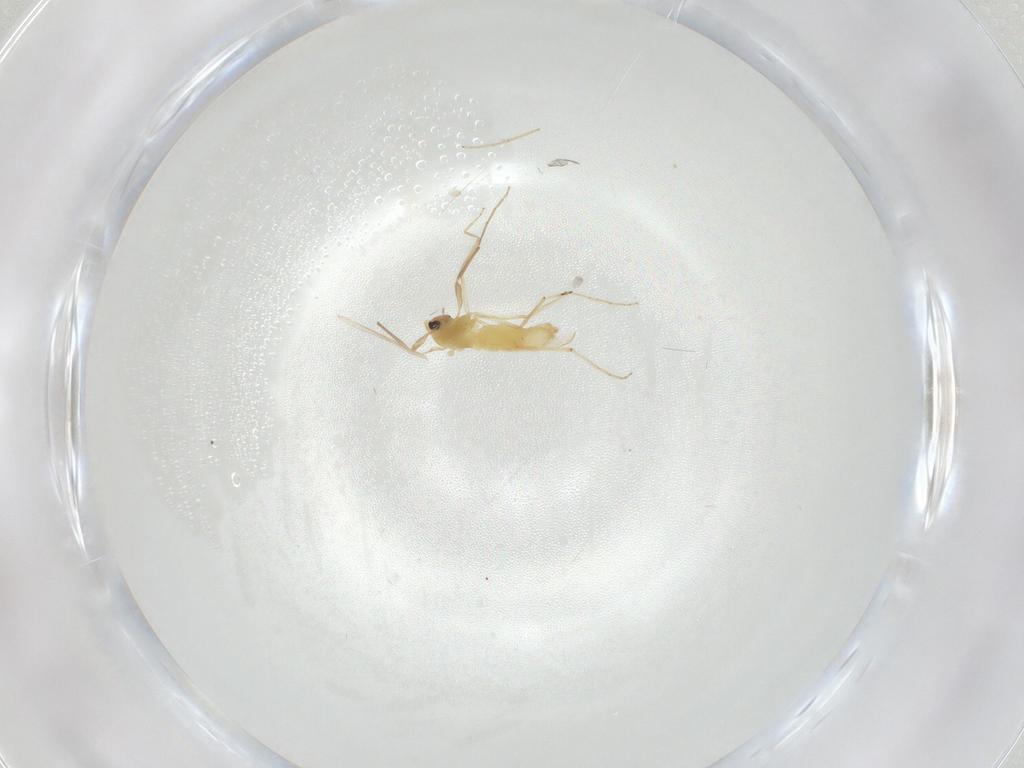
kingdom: Animalia
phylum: Arthropoda
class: Insecta
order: Diptera
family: Chironomidae
